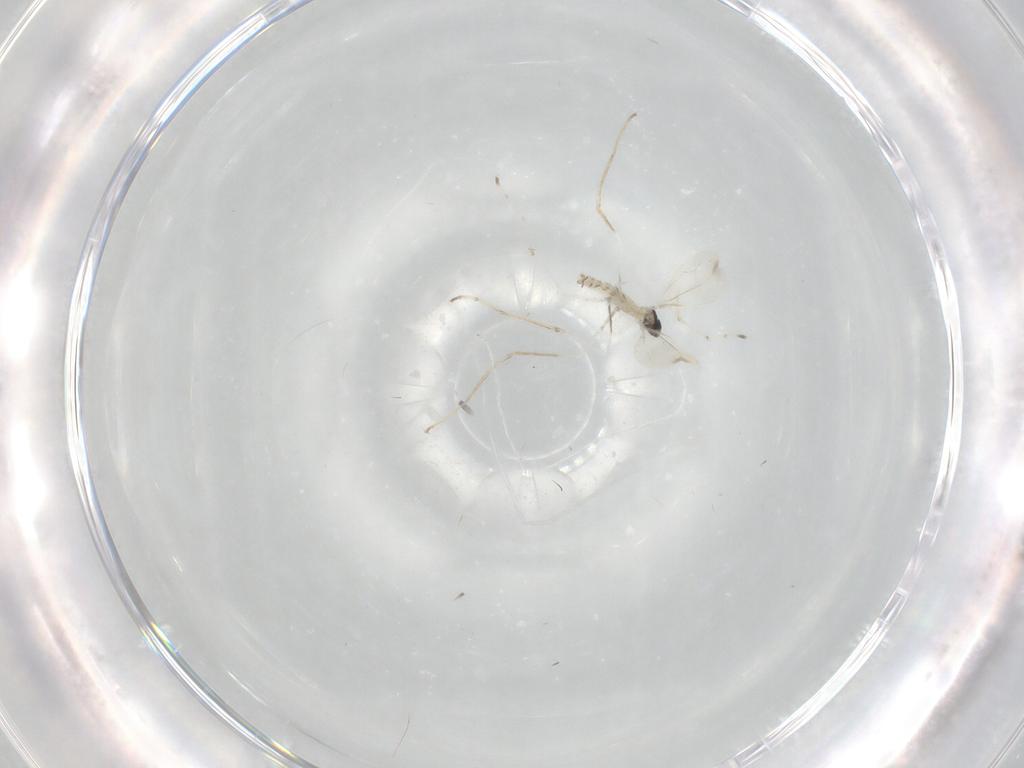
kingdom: Animalia
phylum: Arthropoda
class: Insecta
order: Diptera
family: Cecidomyiidae
